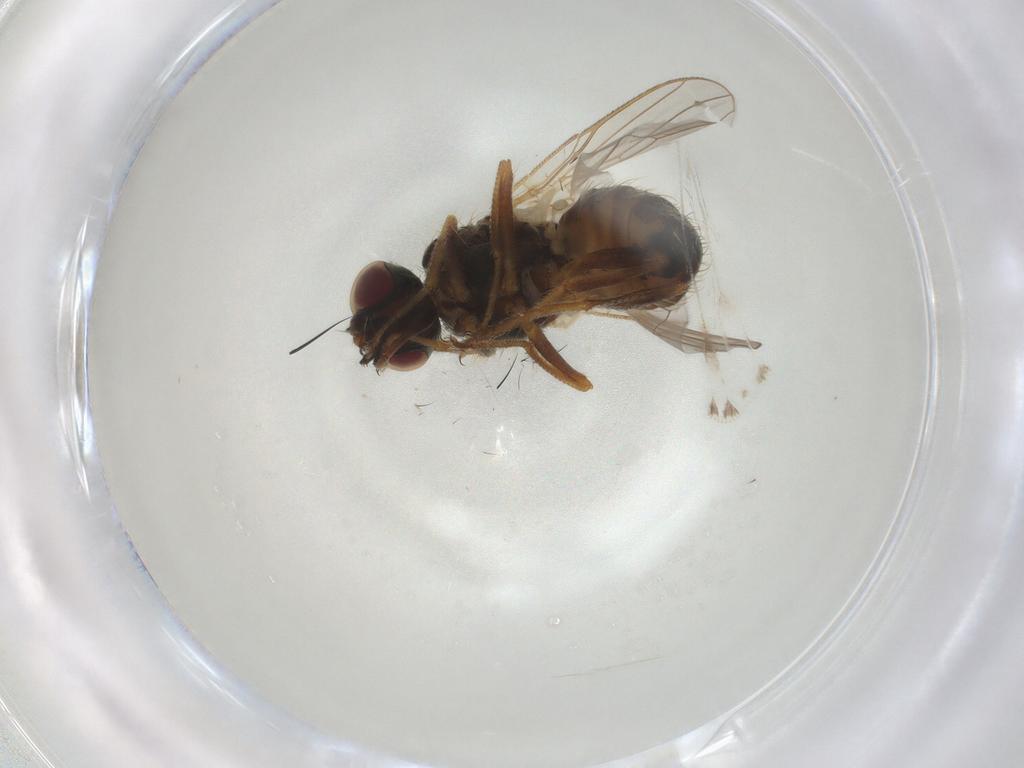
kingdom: Animalia
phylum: Arthropoda
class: Insecta
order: Diptera
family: Muscidae
